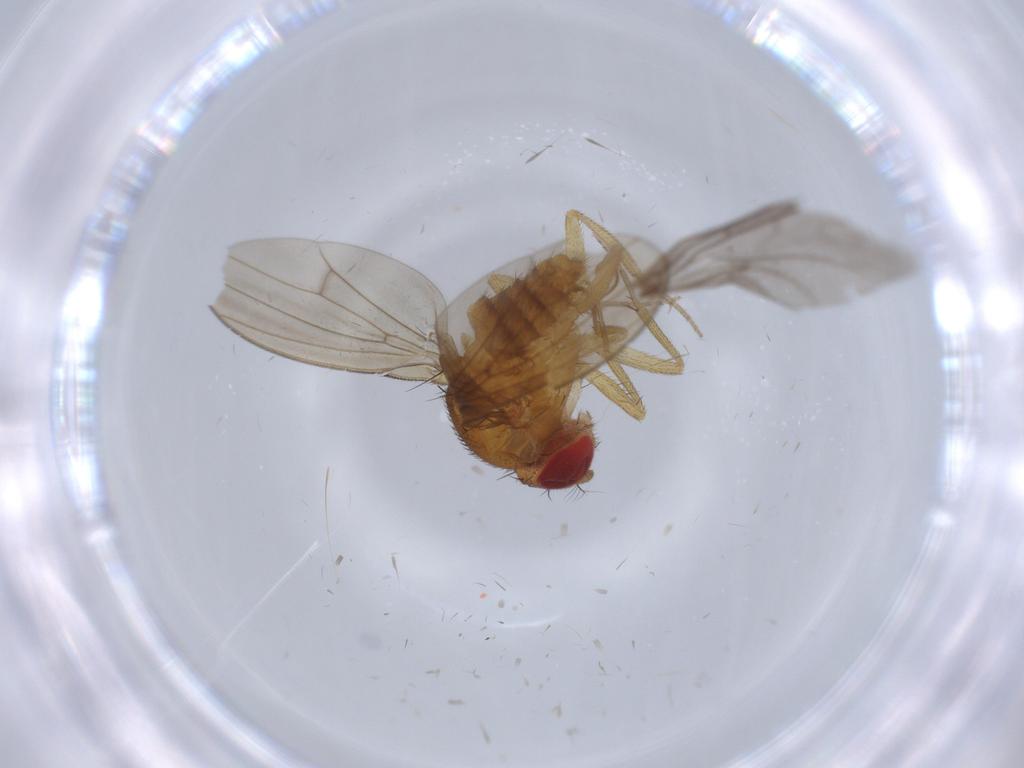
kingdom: Animalia
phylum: Arthropoda
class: Insecta
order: Diptera
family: Drosophilidae
